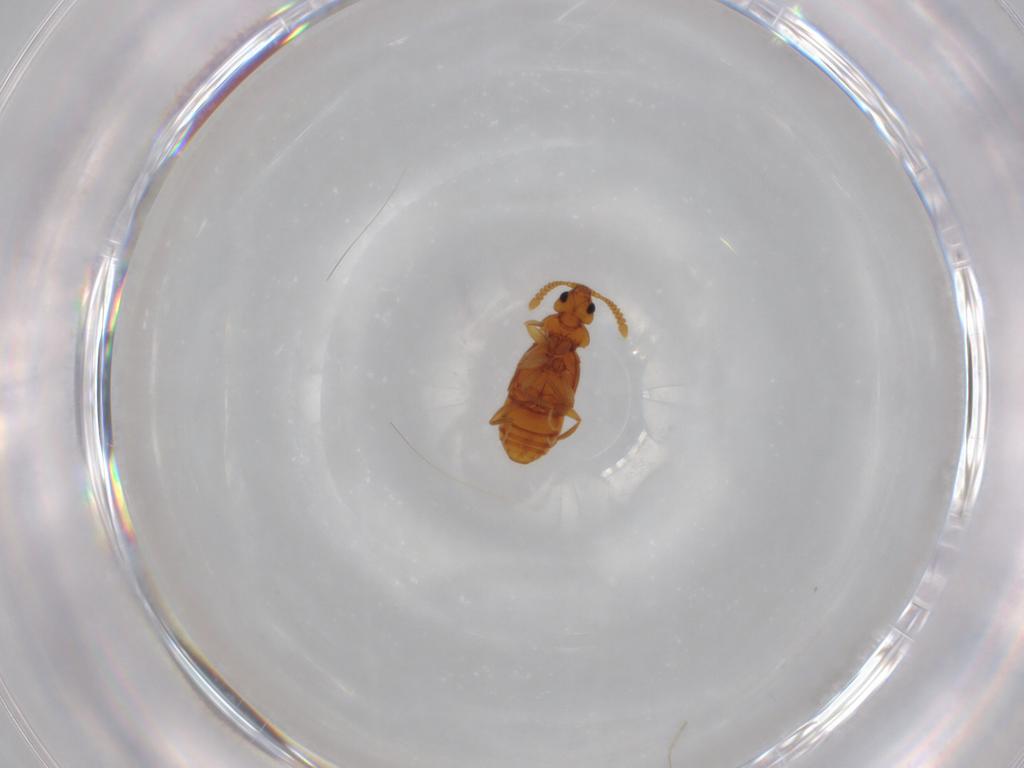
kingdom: Animalia
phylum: Arthropoda
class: Insecta
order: Coleoptera
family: Staphylinidae
